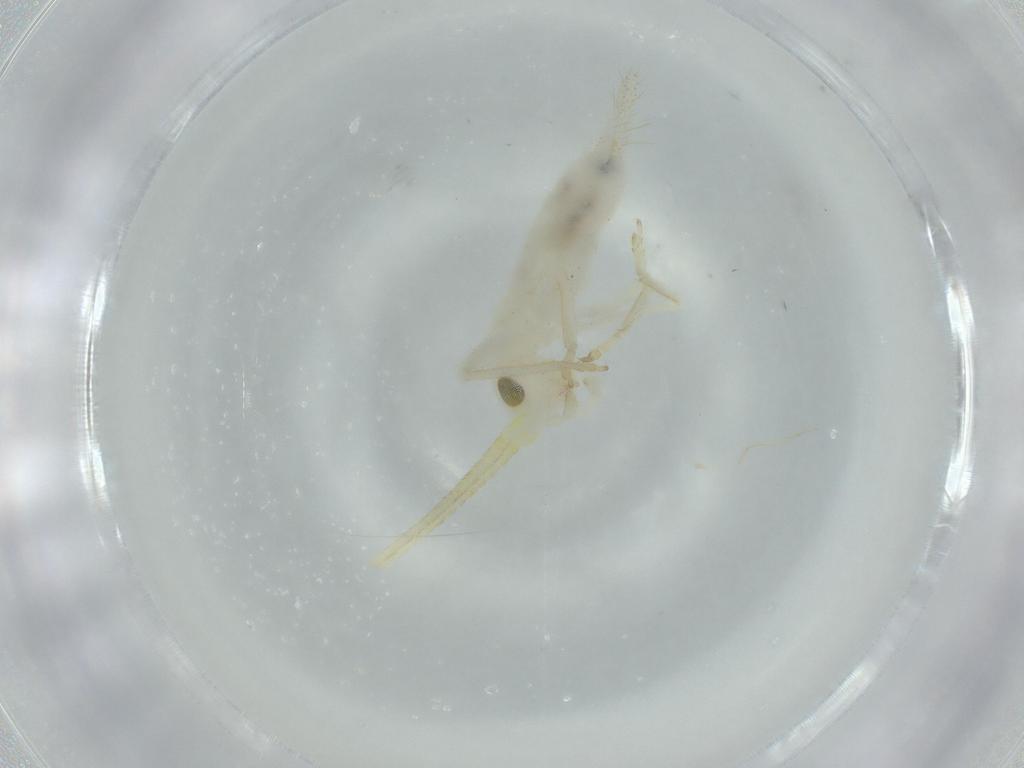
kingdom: Animalia
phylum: Arthropoda
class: Insecta
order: Orthoptera
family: Trigonidiidae
